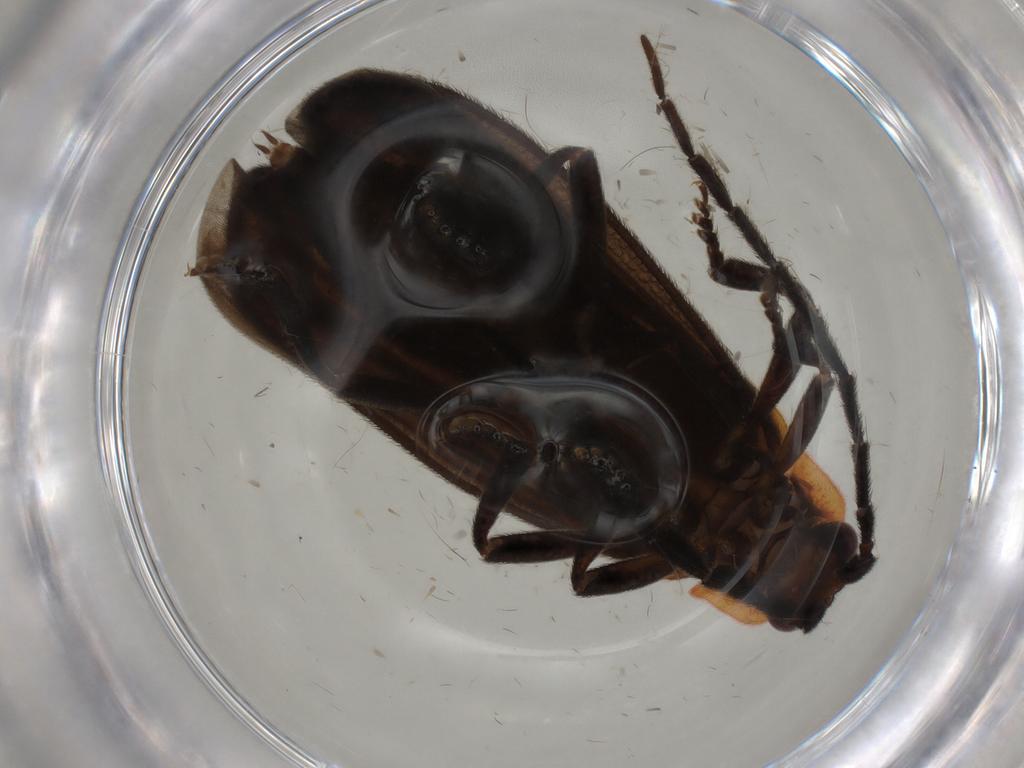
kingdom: Animalia
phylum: Arthropoda
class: Insecta
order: Coleoptera
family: Lycidae
